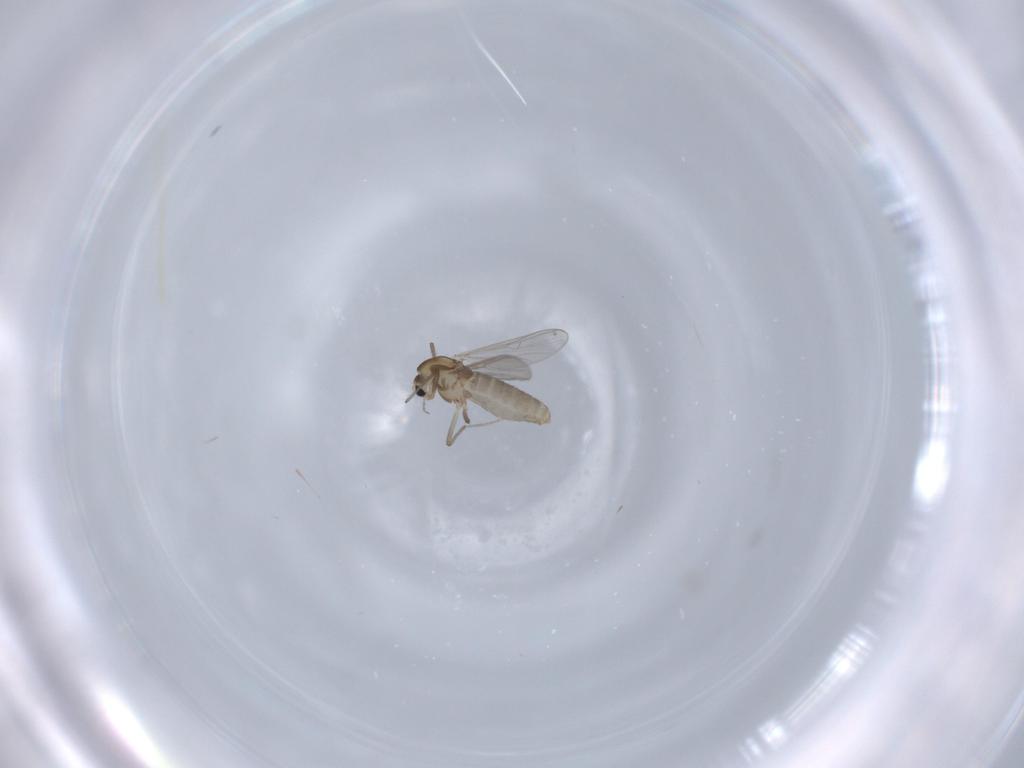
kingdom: Animalia
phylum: Arthropoda
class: Insecta
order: Diptera
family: Chironomidae
